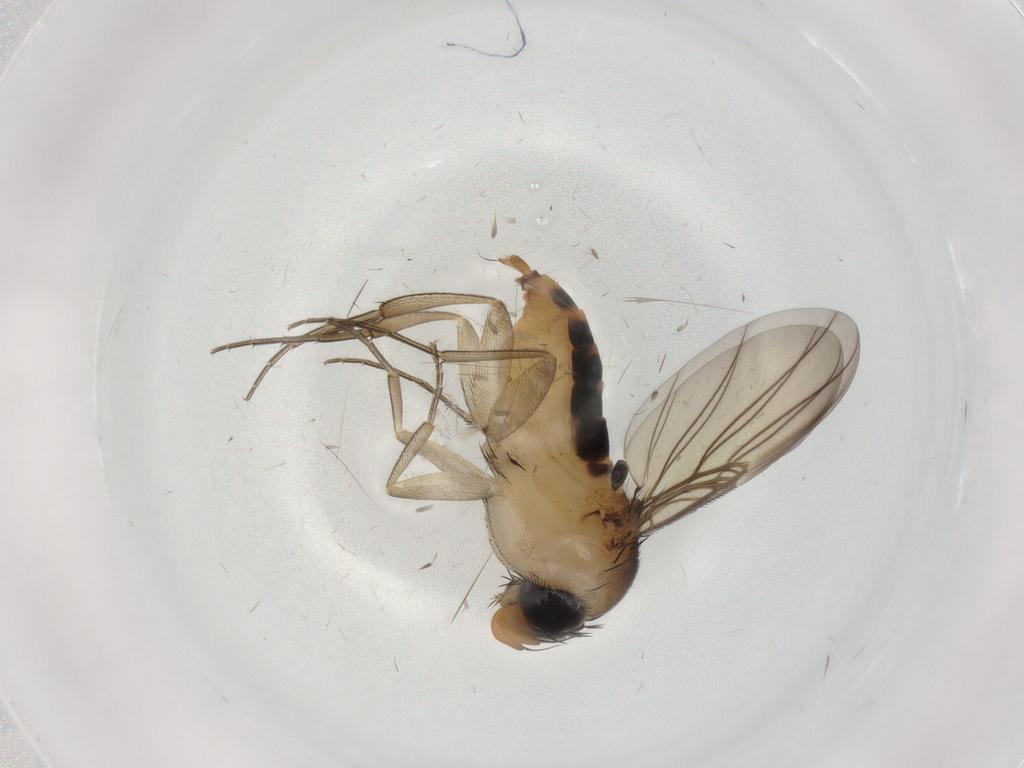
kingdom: Animalia
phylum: Arthropoda
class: Insecta
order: Diptera
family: Phoridae
